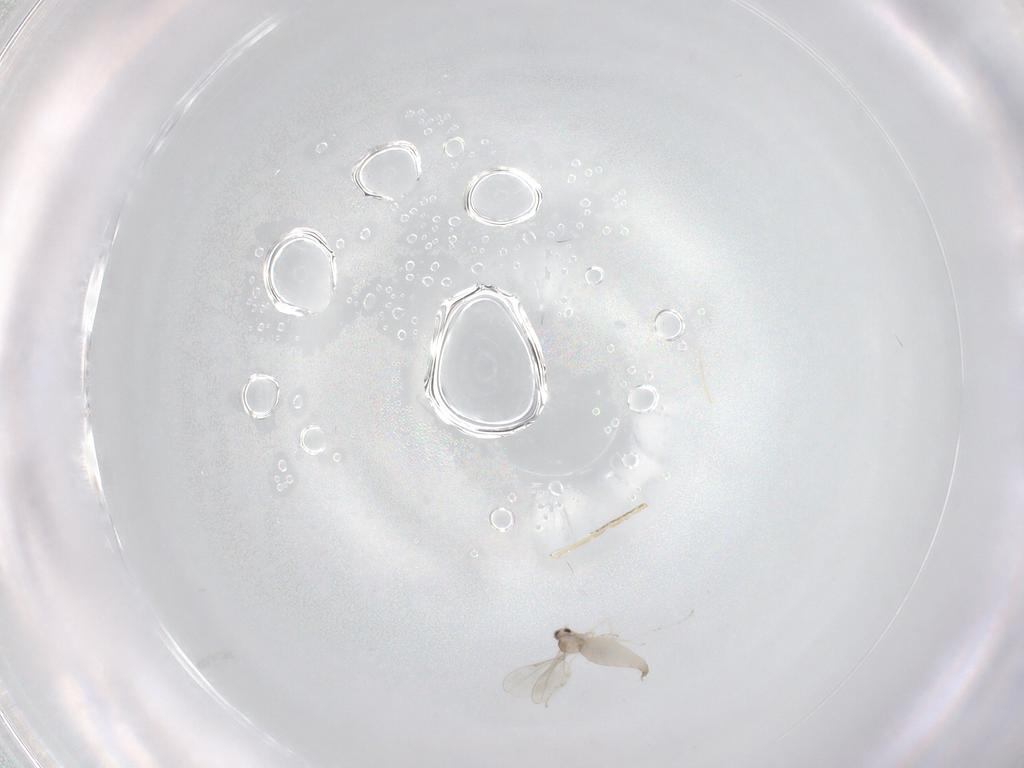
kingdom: Animalia
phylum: Arthropoda
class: Insecta
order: Diptera
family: Cecidomyiidae
